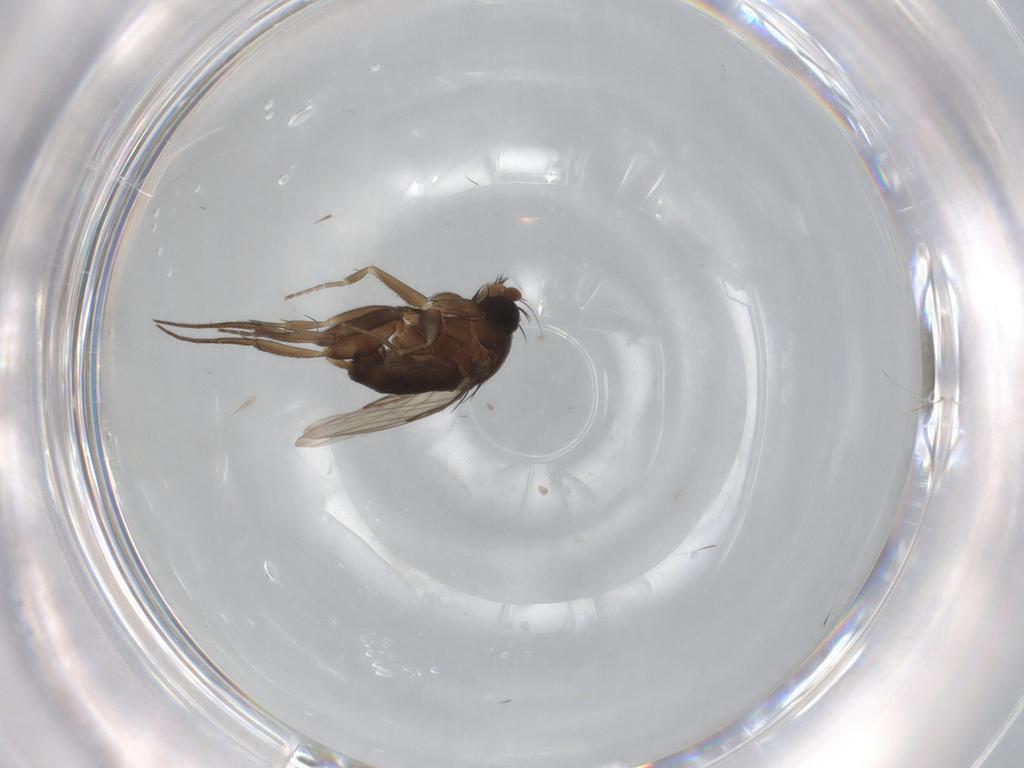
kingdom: Animalia
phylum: Arthropoda
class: Insecta
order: Diptera
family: Phoridae
